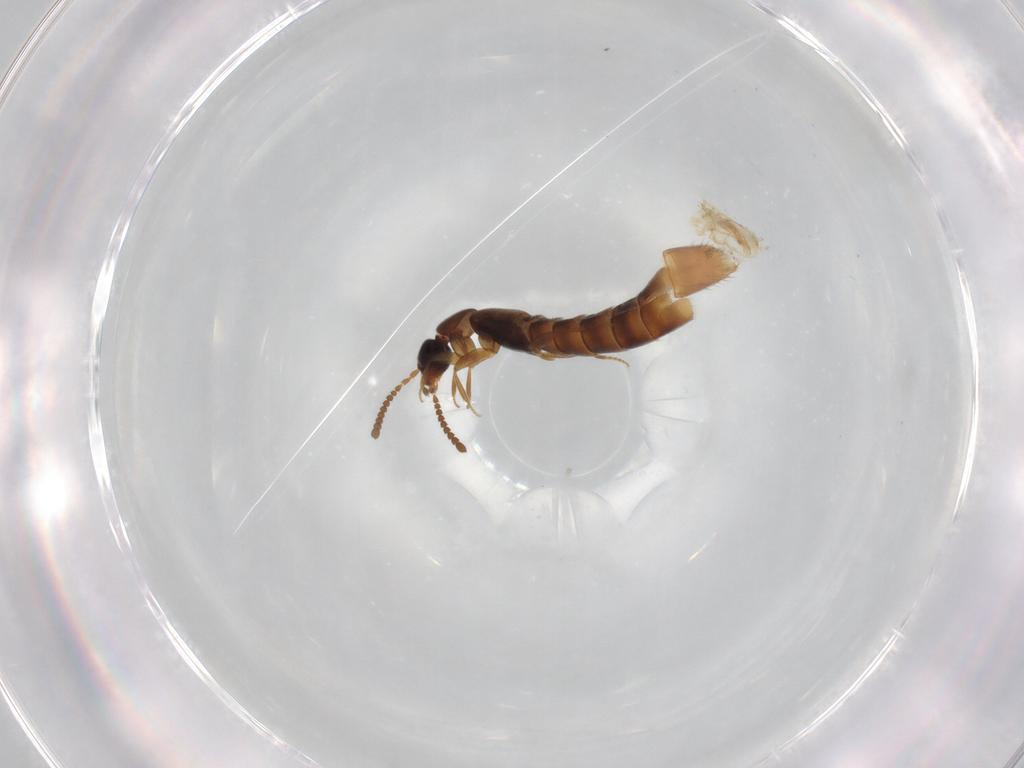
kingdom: Animalia
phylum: Arthropoda
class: Insecta
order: Coleoptera
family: Staphylinidae
